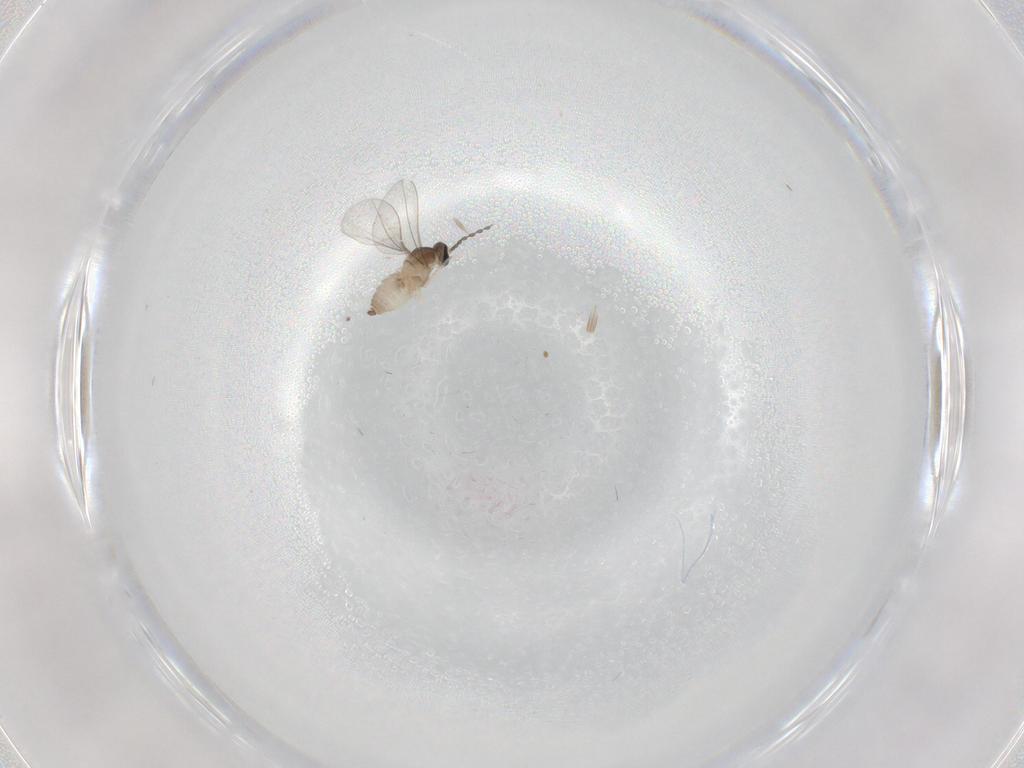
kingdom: Animalia
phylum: Arthropoda
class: Insecta
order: Diptera
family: Cecidomyiidae
